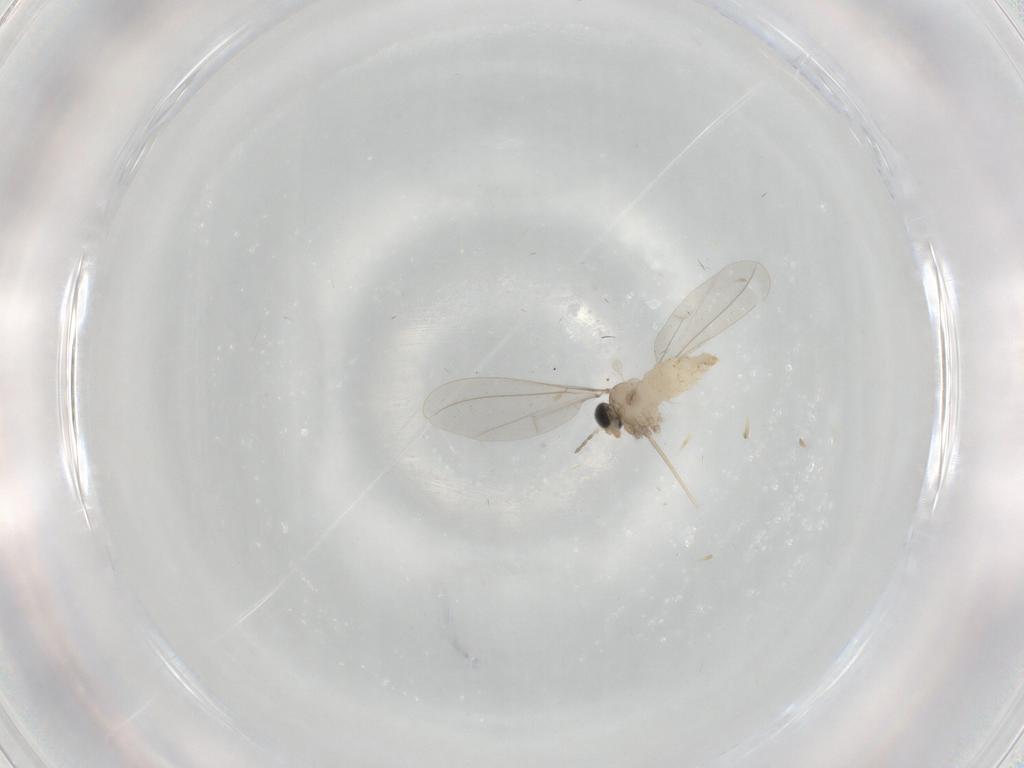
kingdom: Animalia
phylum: Arthropoda
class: Insecta
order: Diptera
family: Cecidomyiidae
